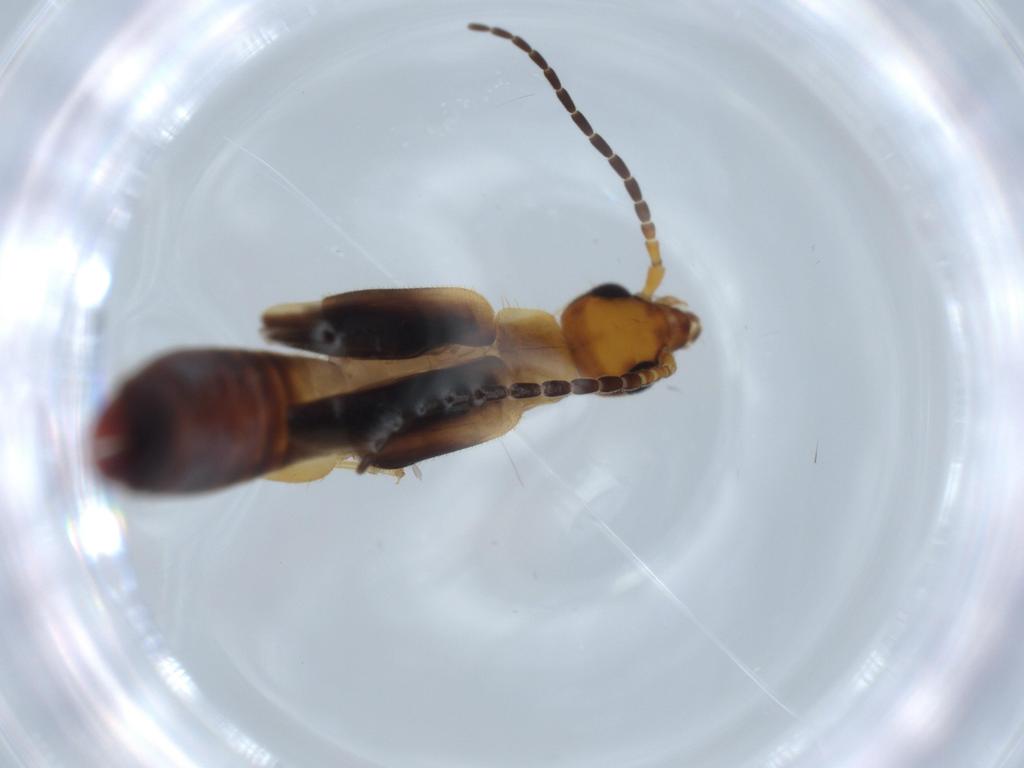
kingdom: Animalia
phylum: Arthropoda
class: Insecta
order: Dermaptera
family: Forficulidae
